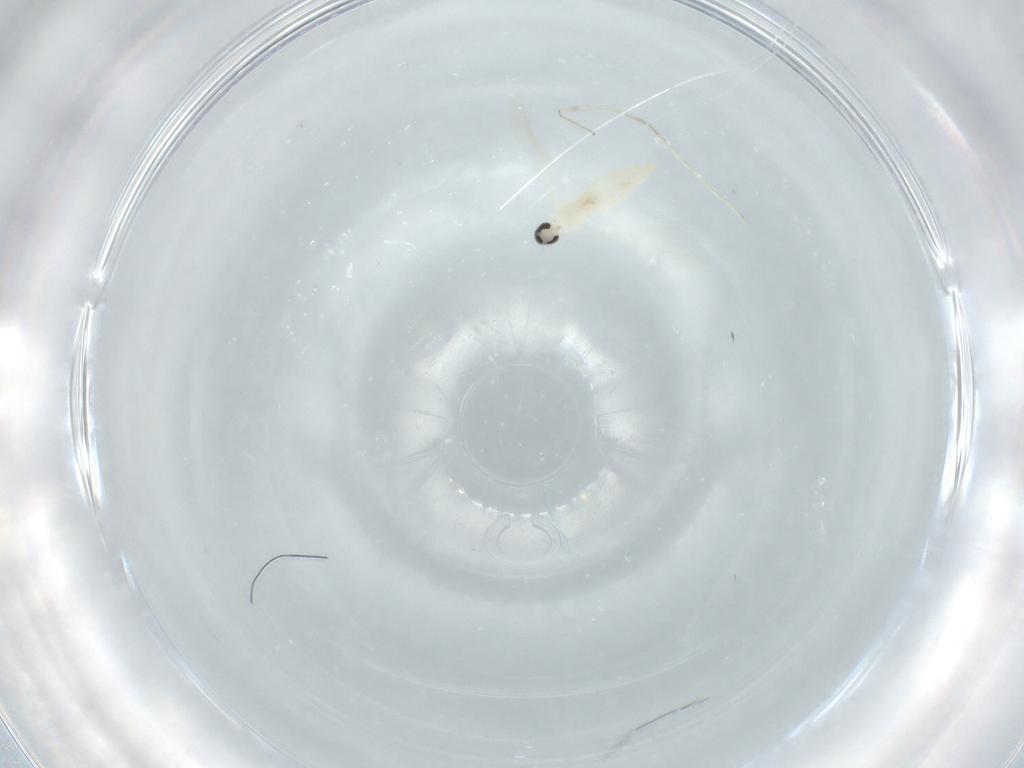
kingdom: Animalia
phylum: Arthropoda
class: Insecta
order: Diptera
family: Cecidomyiidae
